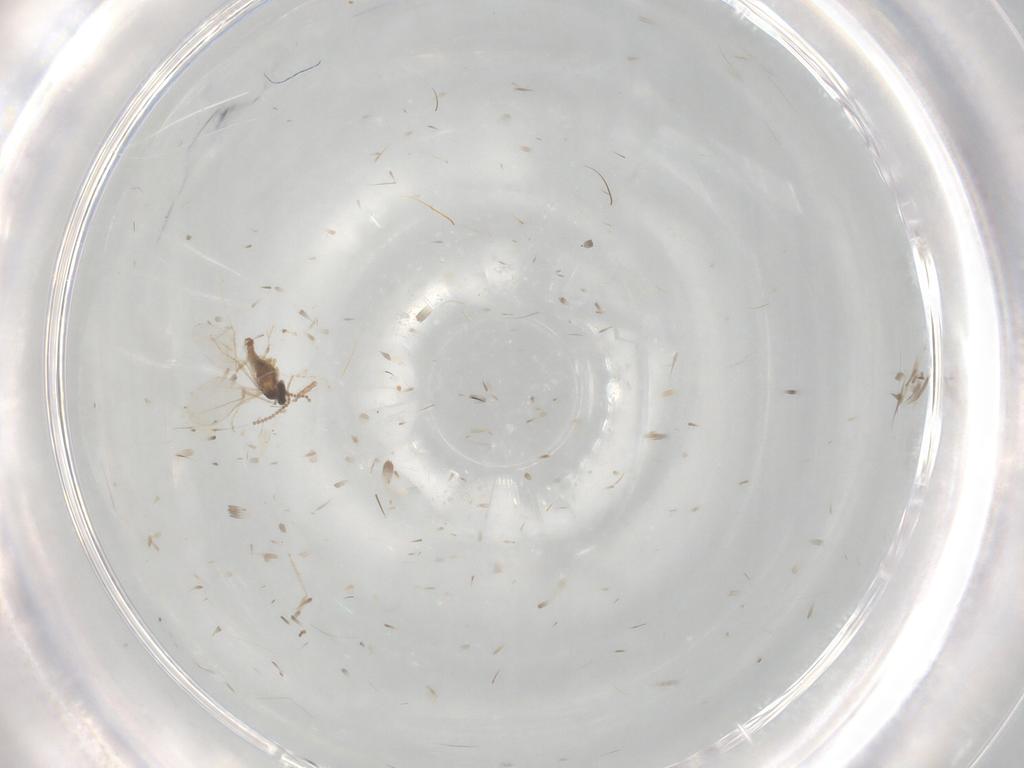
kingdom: Animalia
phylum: Arthropoda
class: Insecta
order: Diptera
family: Muscidae
